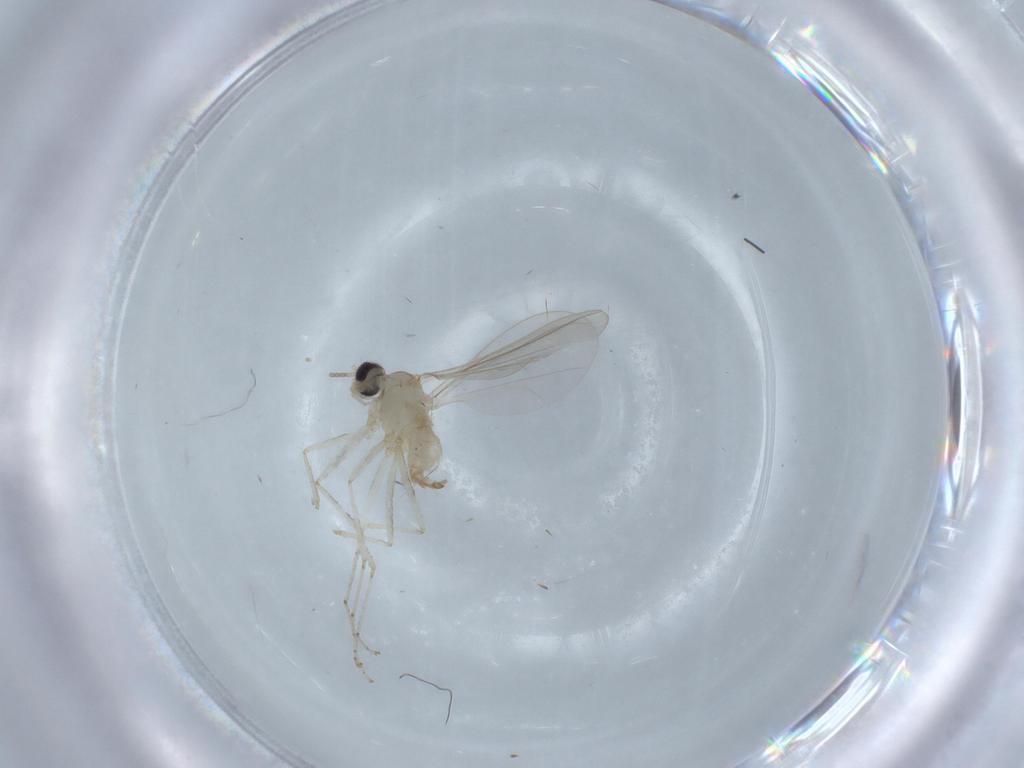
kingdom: Animalia
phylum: Arthropoda
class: Insecta
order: Diptera
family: Cecidomyiidae
